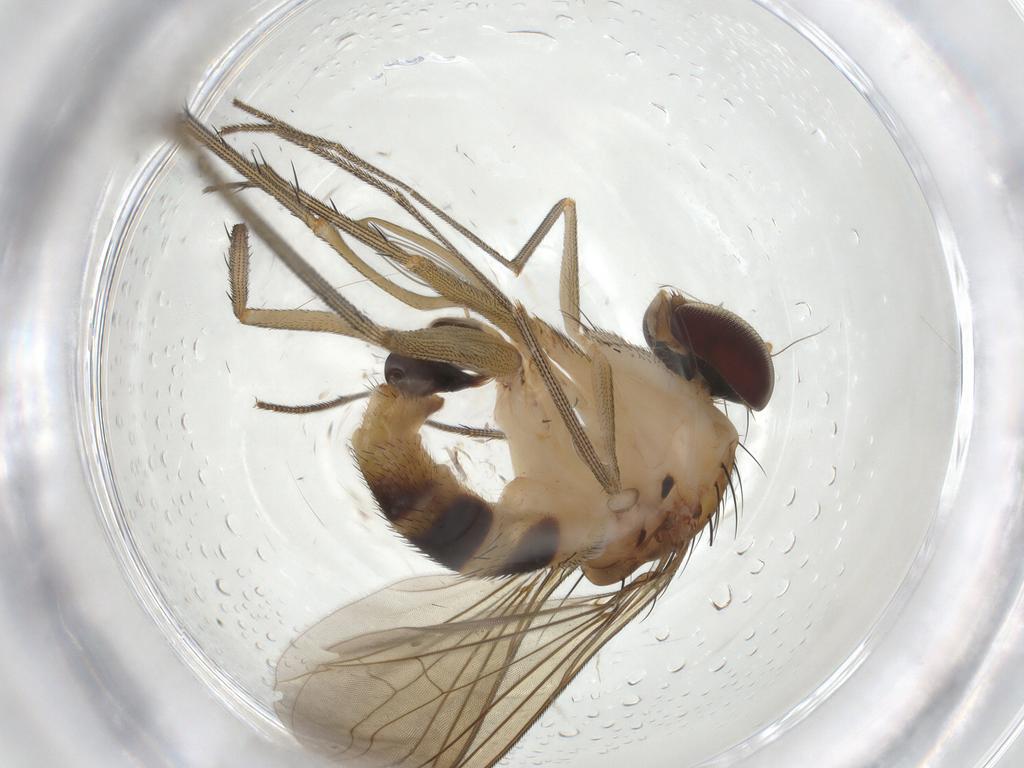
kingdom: Animalia
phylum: Arthropoda
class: Insecta
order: Diptera
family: Dolichopodidae
